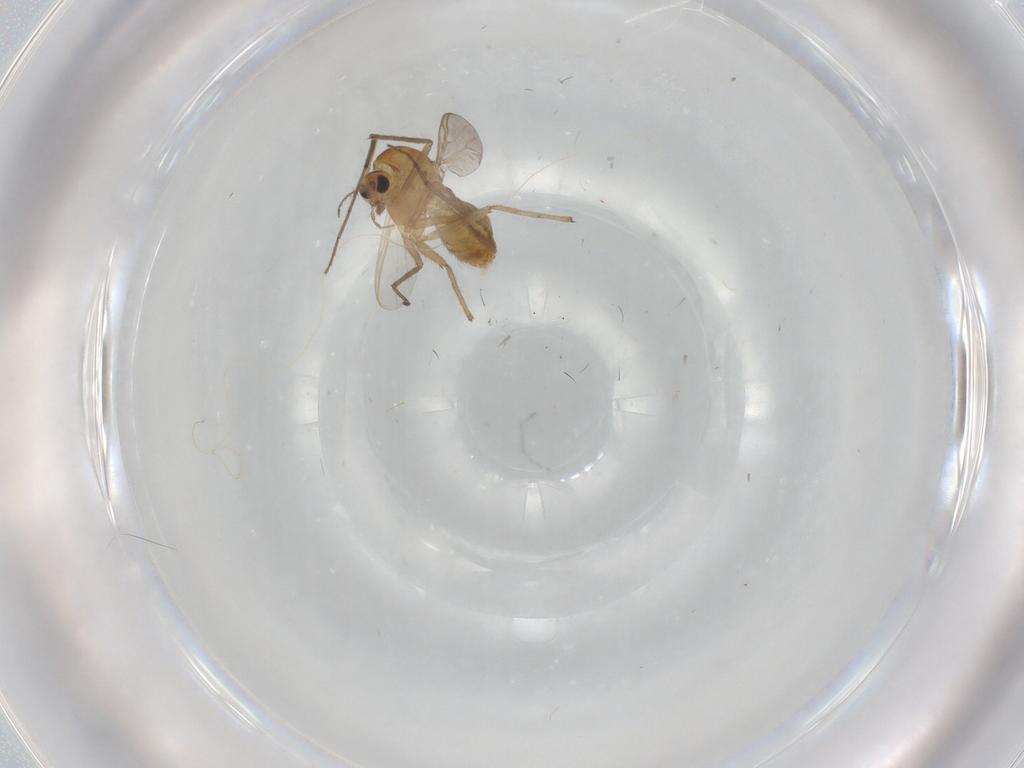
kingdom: Animalia
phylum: Arthropoda
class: Insecta
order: Diptera
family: Chironomidae
